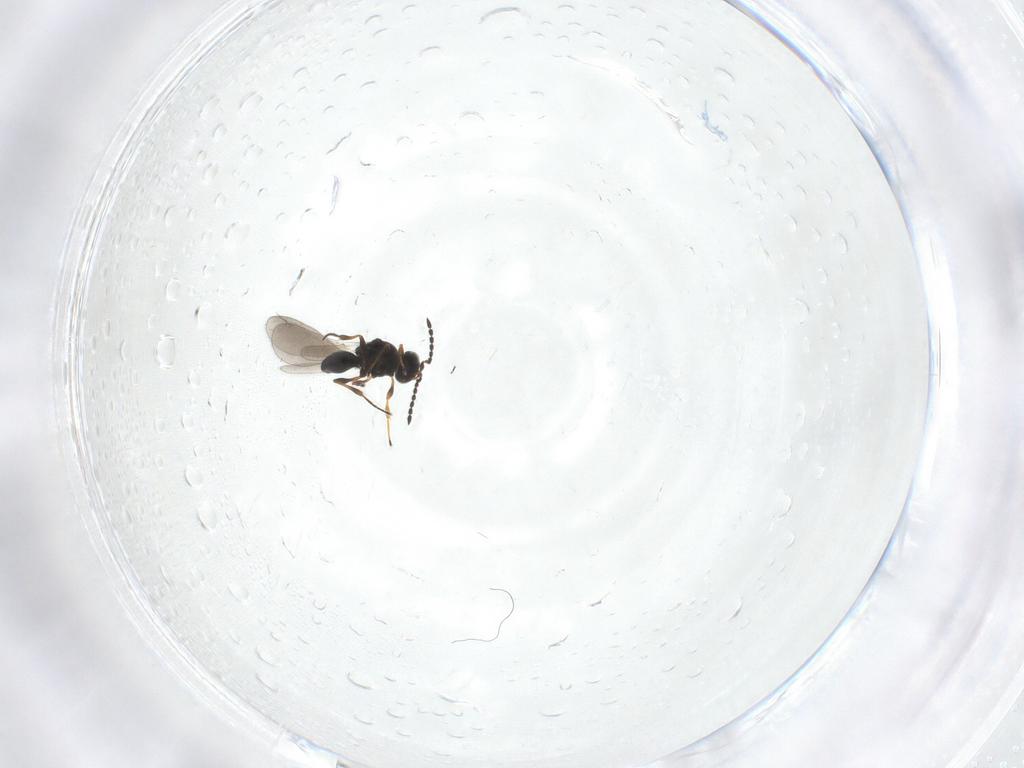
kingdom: Animalia
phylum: Arthropoda
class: Insecta
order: Hymenoptera
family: Platygastridae
